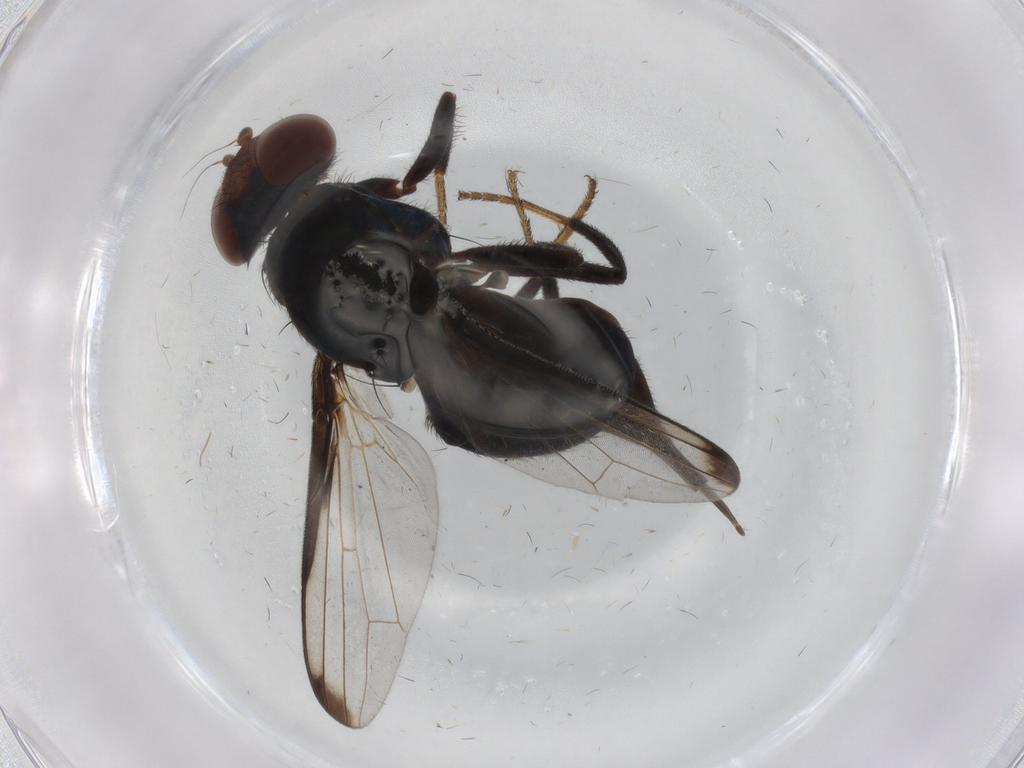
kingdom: Animalia
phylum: Arthropoda
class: Insecta
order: Diptera
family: Ulidiidae
